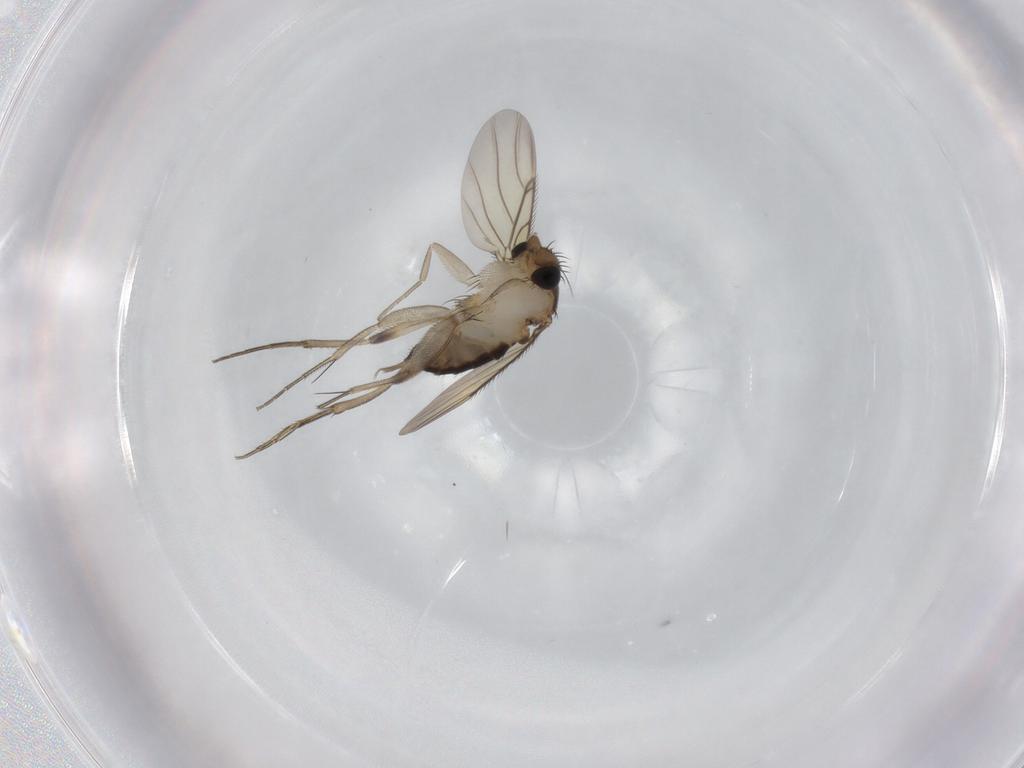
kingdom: Animalia
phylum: Arthropoda
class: Insecta
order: Diptera
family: Phoridae
